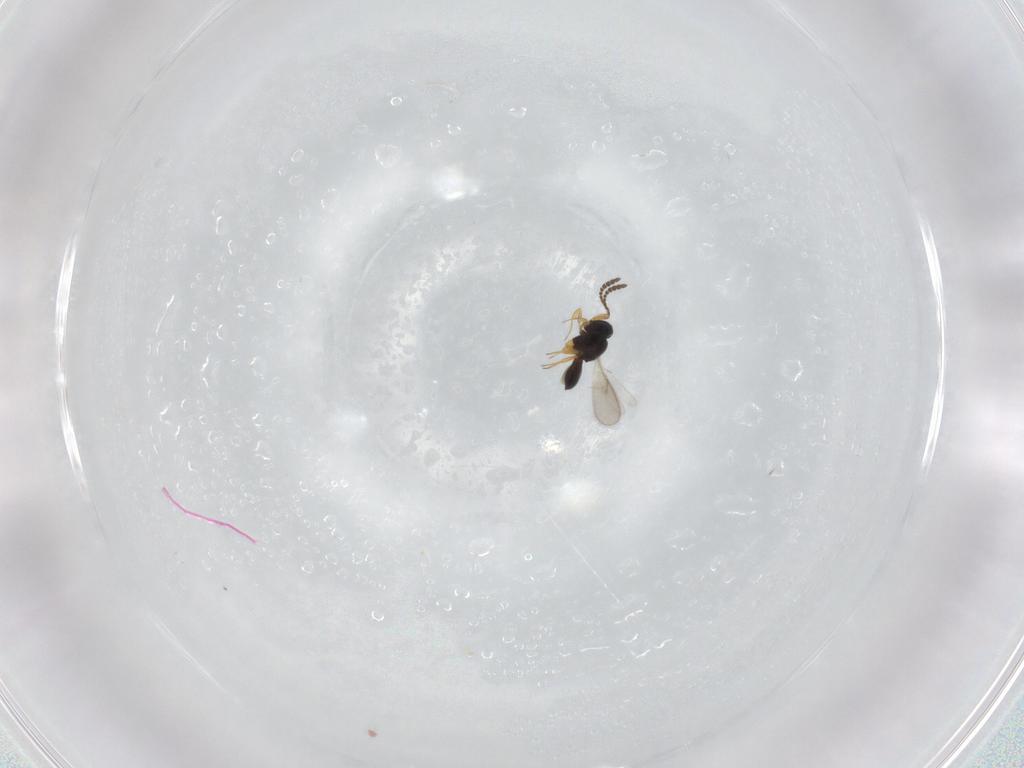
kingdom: Animalia
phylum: Arthropoda
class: Insecta
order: Hymenoptera
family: Scelionidae
